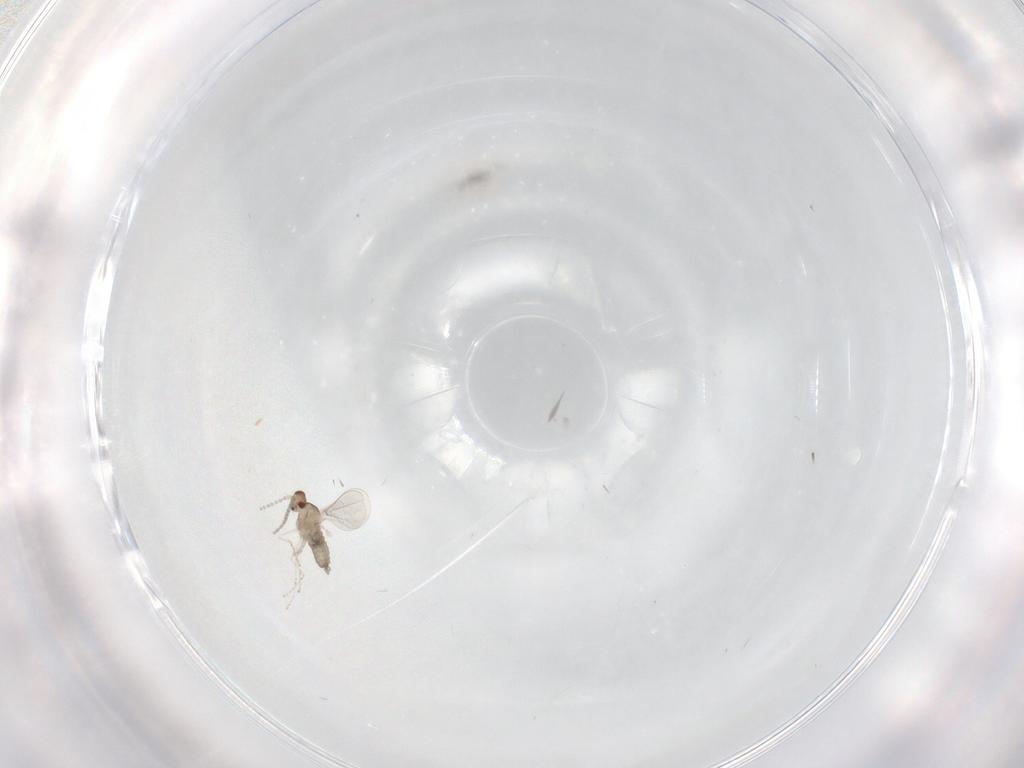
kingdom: Animalia
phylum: Arthropoda
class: Insecta
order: Diptera
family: Cecidomyiidae
